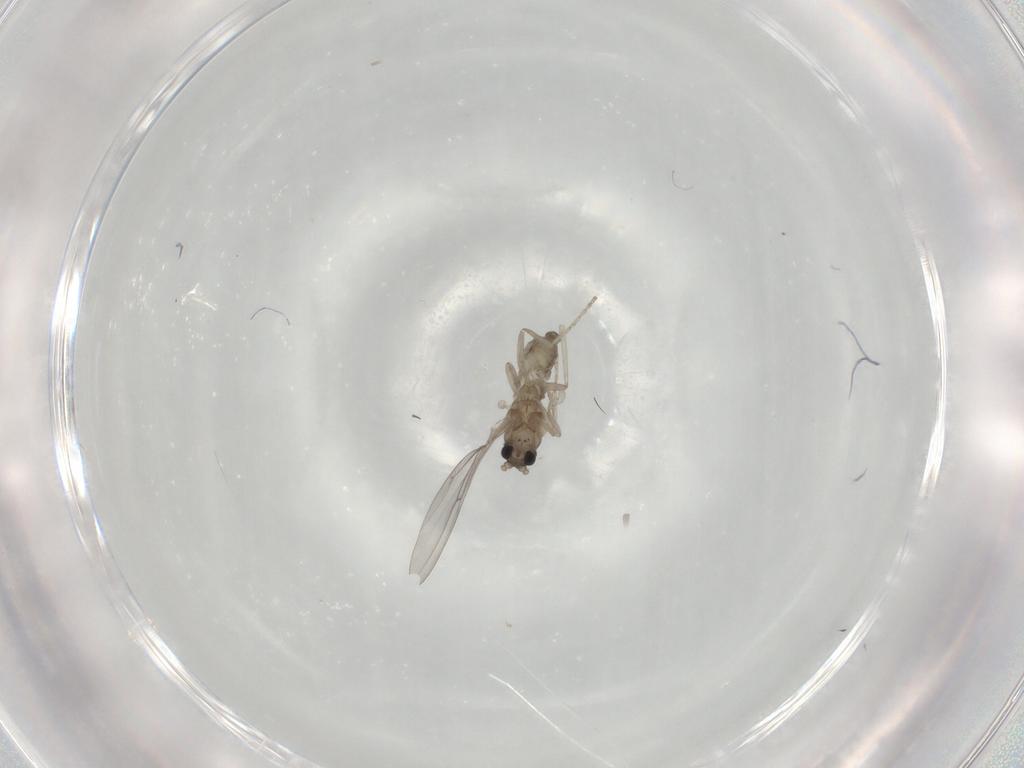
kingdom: Animalia
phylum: Arthropoda
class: Insecta
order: Diptera
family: Cecidomyiidae
